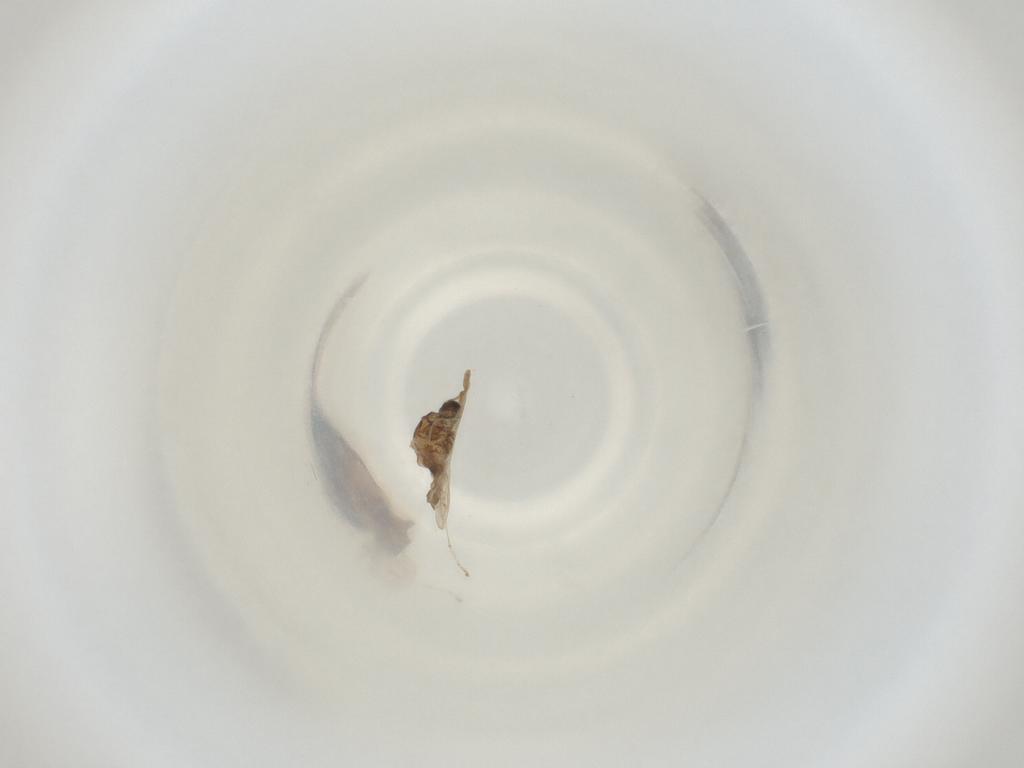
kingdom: Animalia
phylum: Arthropoda
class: Insecta
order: Diptera
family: Cecidomyiidae
